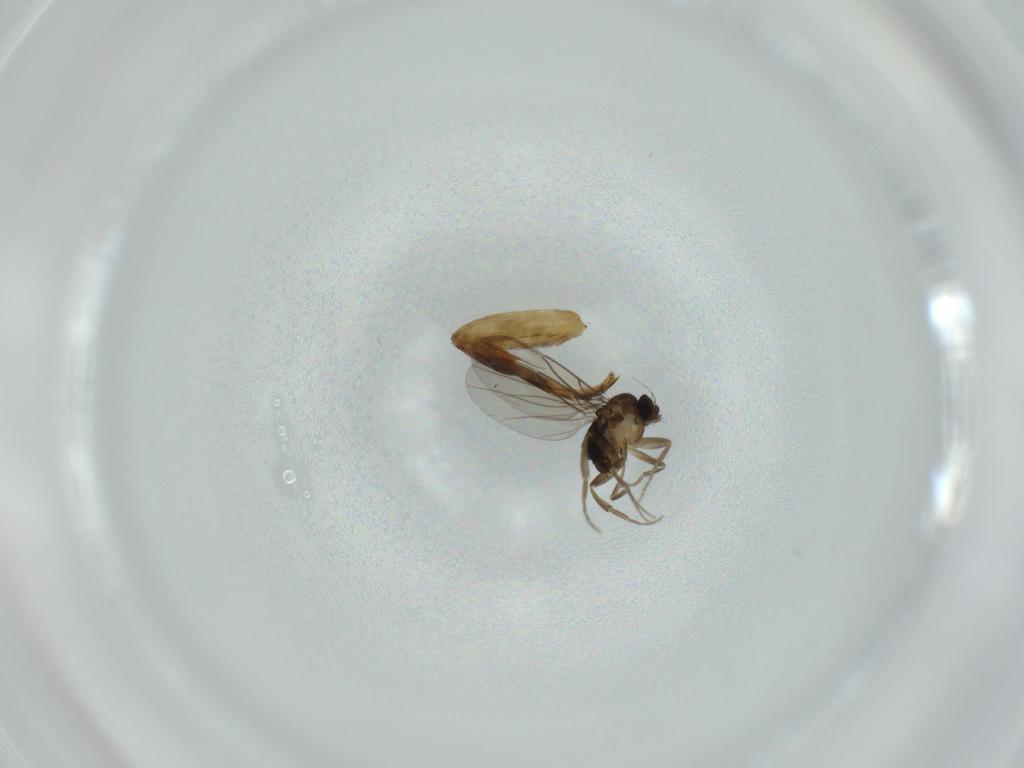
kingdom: Animalia
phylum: Arthropoda
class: Insecta
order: Diptera
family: Phoridae
